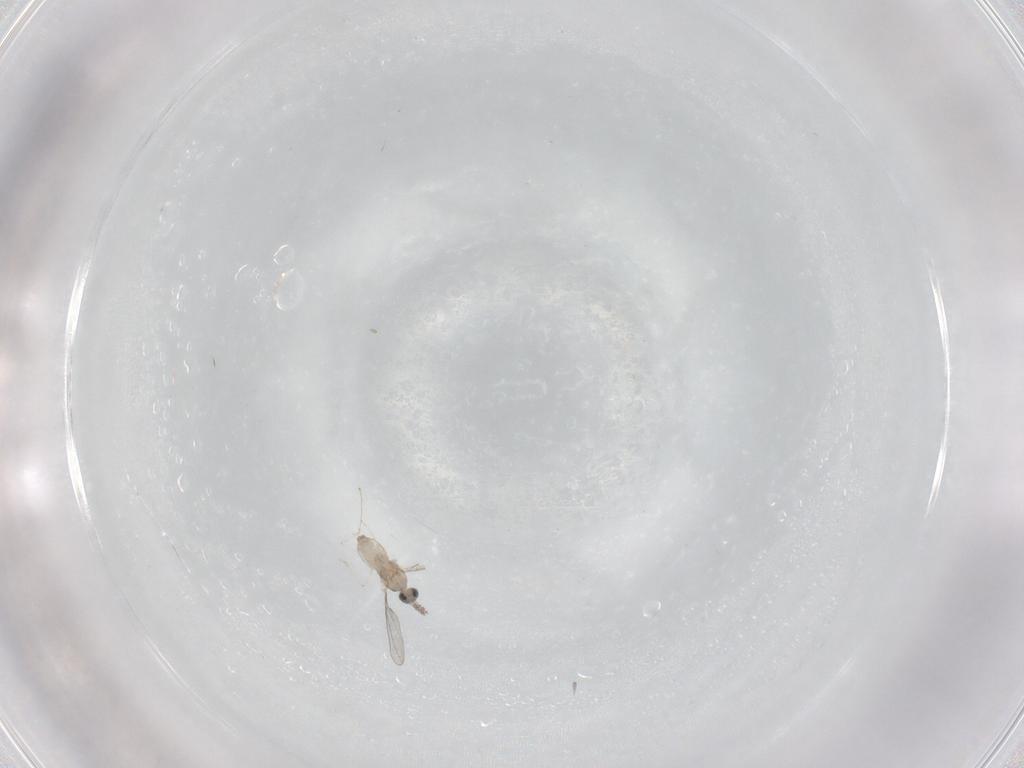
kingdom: Animalia
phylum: Arthropoda
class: Insecta
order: Diptera
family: Cecidomyiidae
